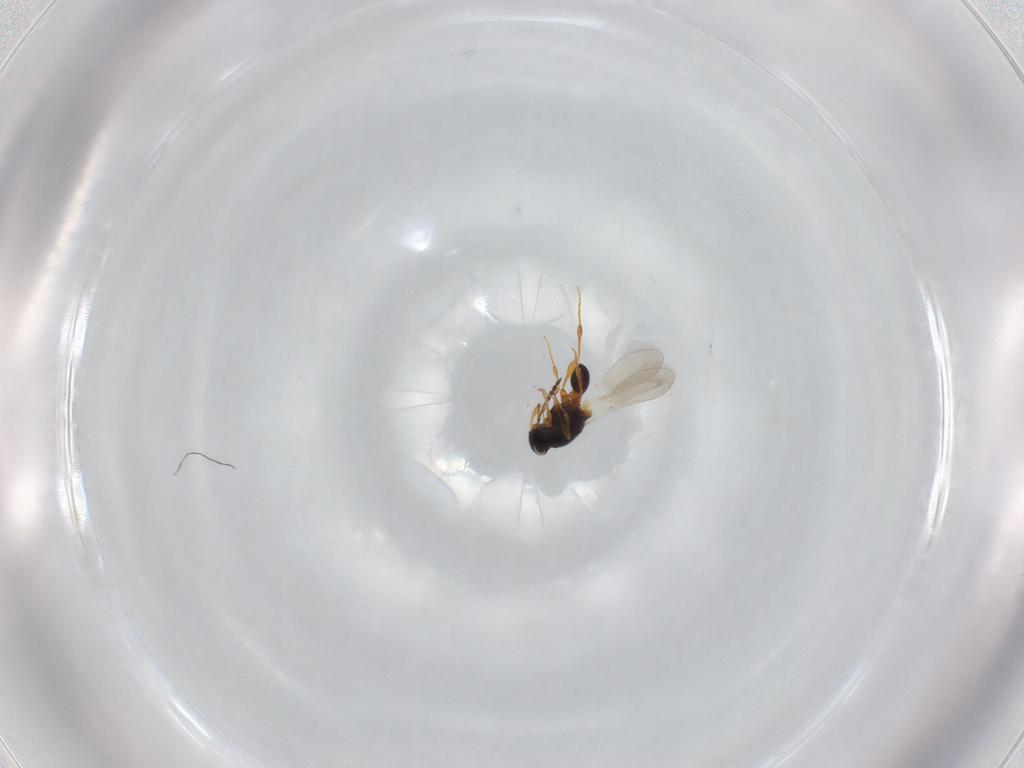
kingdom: Animalia
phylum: Arthropoda
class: Insecta
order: Hymenoptera
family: Platygastridae
